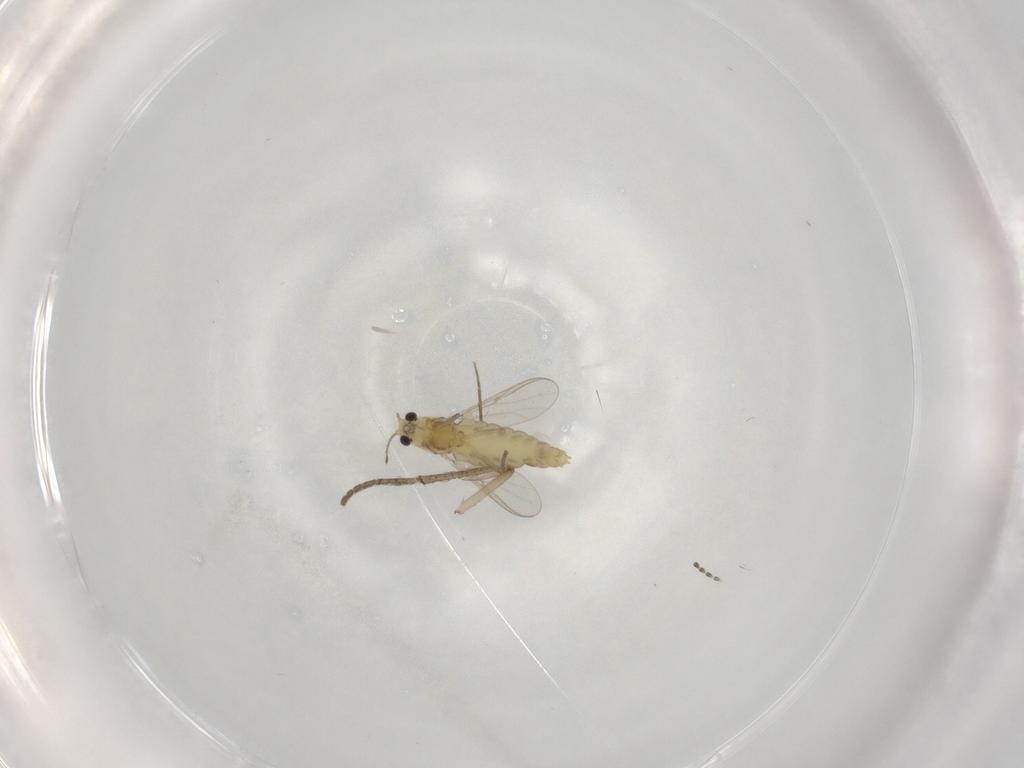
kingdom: Animalia
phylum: Arthropoda
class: Insecta
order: Diptera
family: Chironomidae
